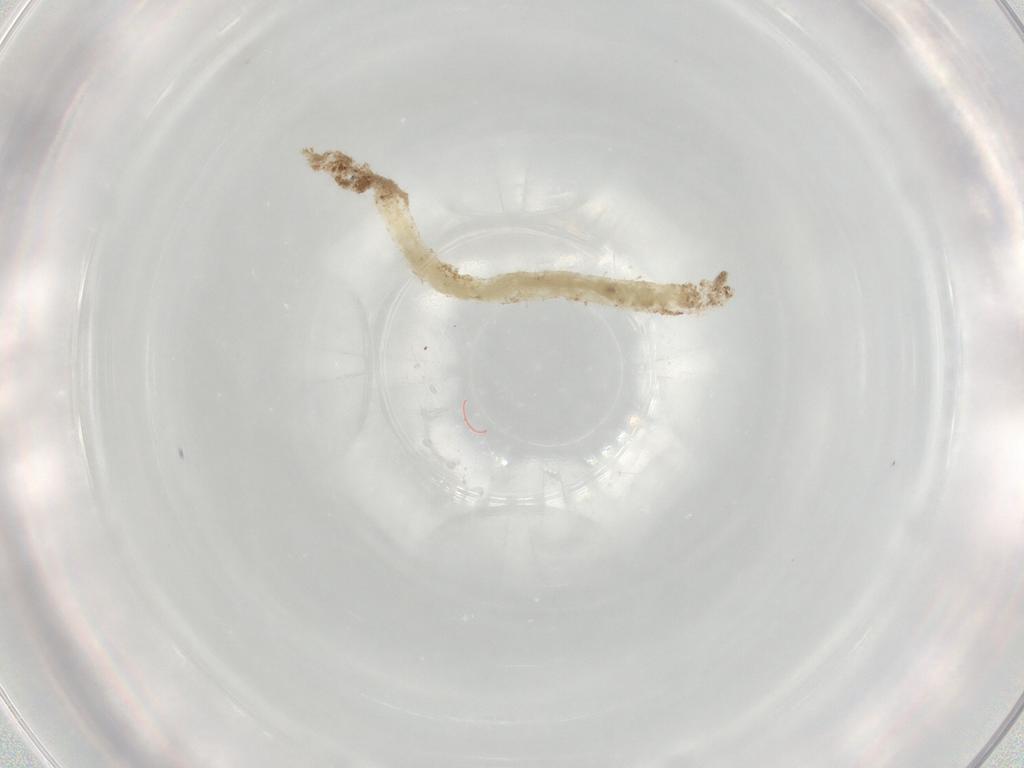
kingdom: Animalia
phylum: Arthropoda
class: Insecta
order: Diptera
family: Chironomidae
